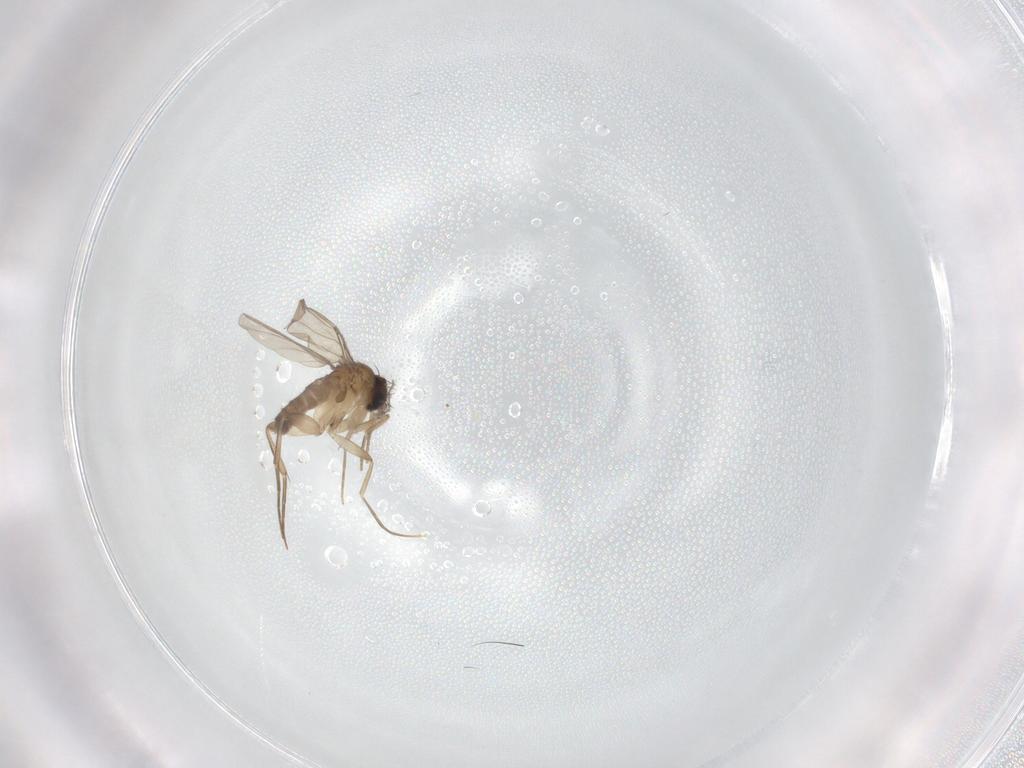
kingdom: Animalia
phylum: Arthropoda
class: Insecta
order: Diptera
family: Phoridae
